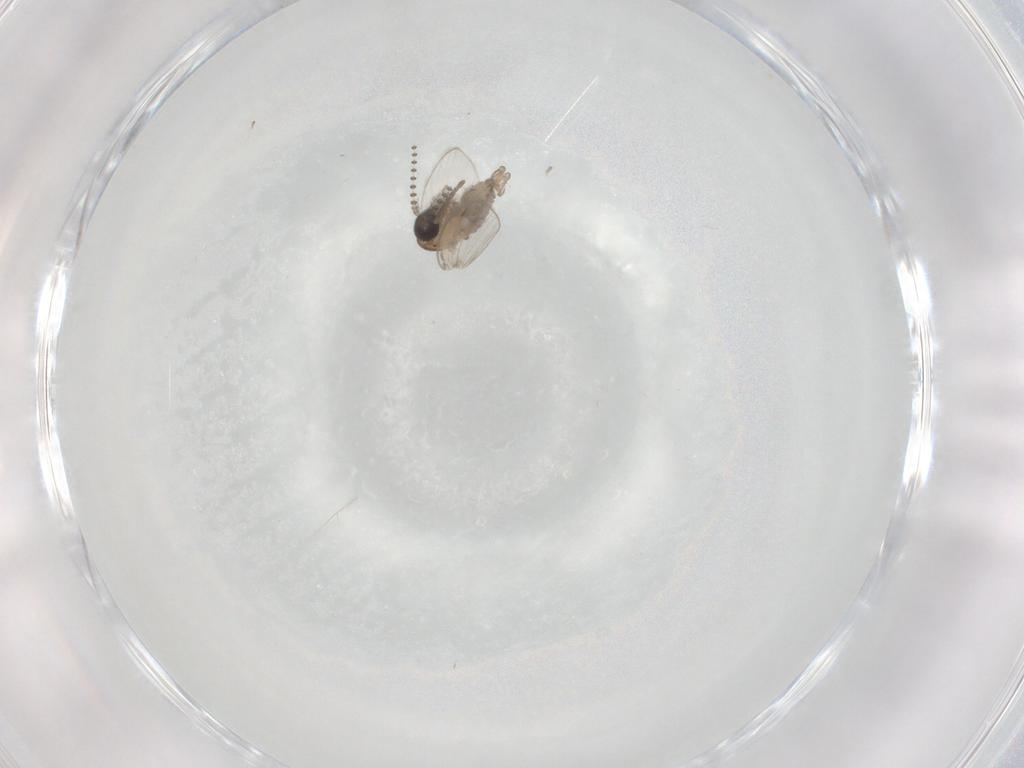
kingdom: Animalia
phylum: Arthropoda
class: Insecta
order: Diptera
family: Psychodidae
